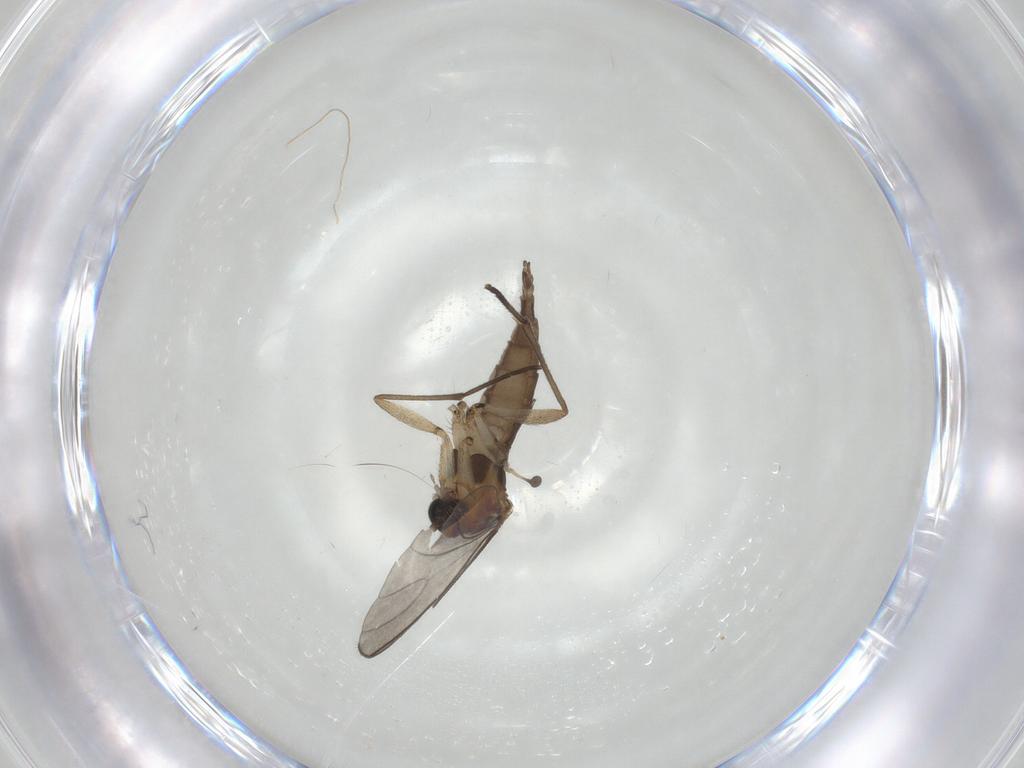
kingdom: Animalia
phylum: Arthropoda
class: Insecta
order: Diptera
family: Sciaridae
